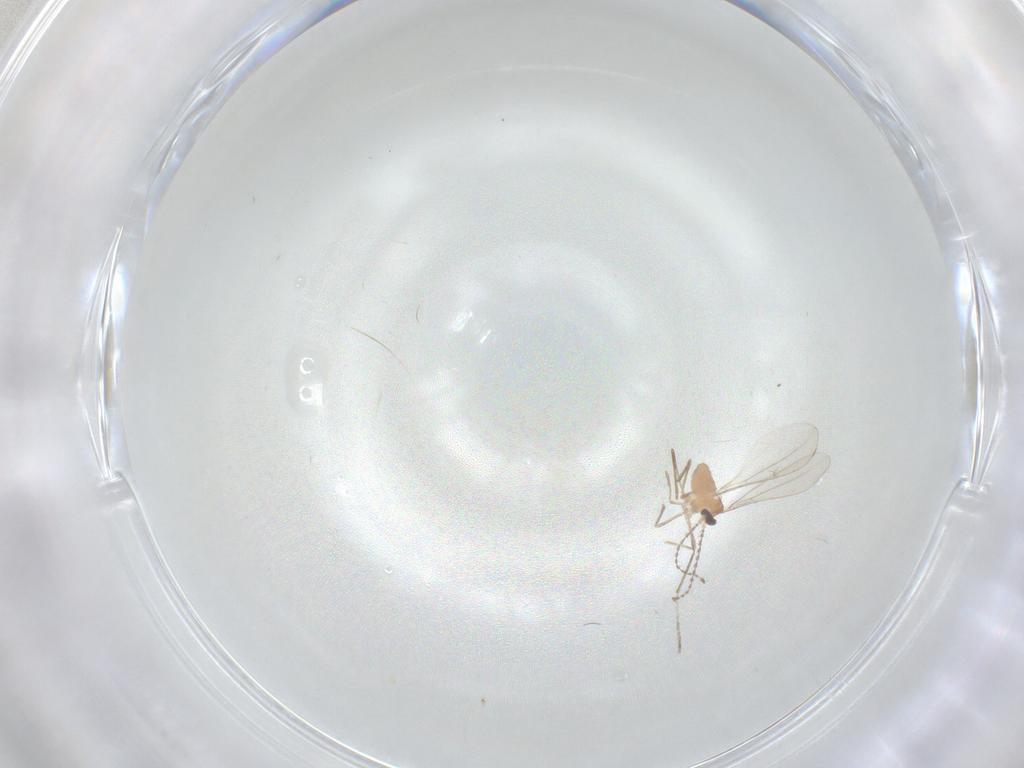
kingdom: Animalia
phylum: Arthropoda
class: Insecta
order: Diptera
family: Cecidomyiidae
